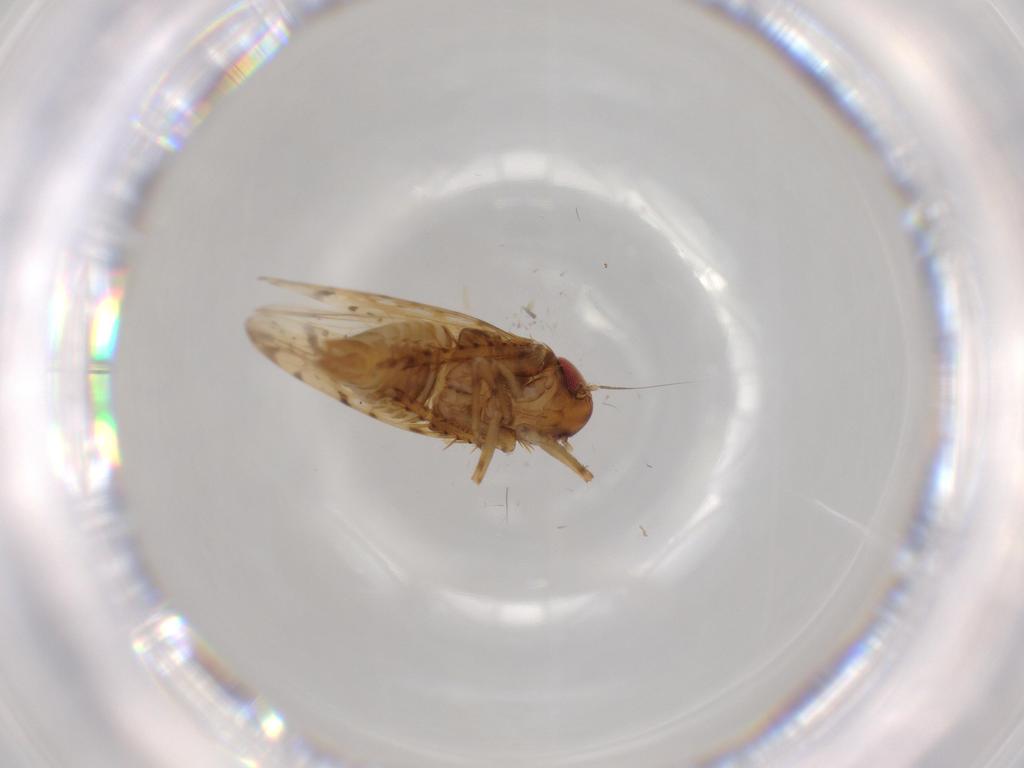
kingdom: Animalia
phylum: Arthropoda
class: Insecta
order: Hemiptera
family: Cicadellidae
